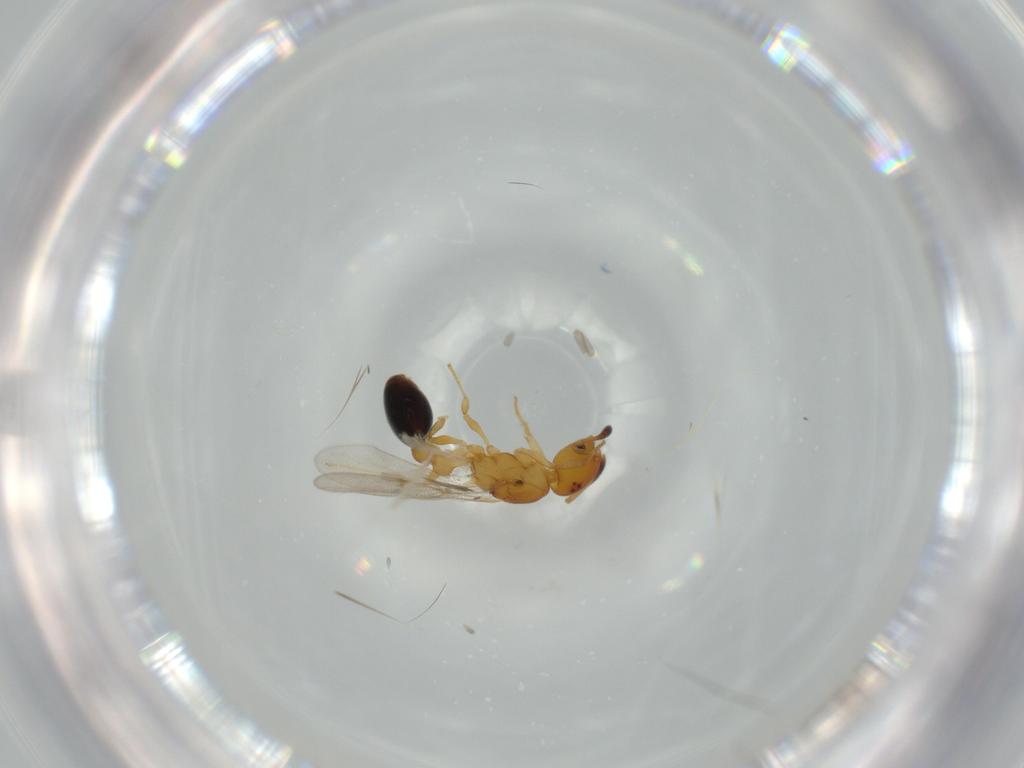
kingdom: Animalia
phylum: Arthropoda
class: Insecta
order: Hymenoptera
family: Formicidae
